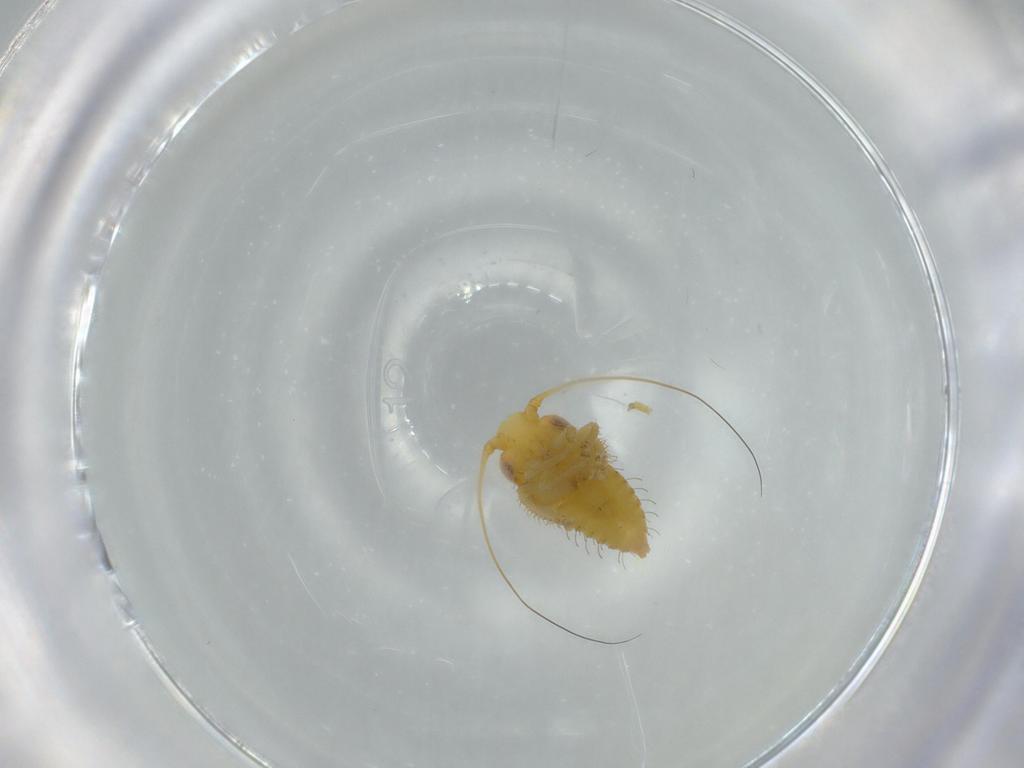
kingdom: Animalia
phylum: Arthropoda
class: Insecta
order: Hemiptera
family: Cicadellidae
